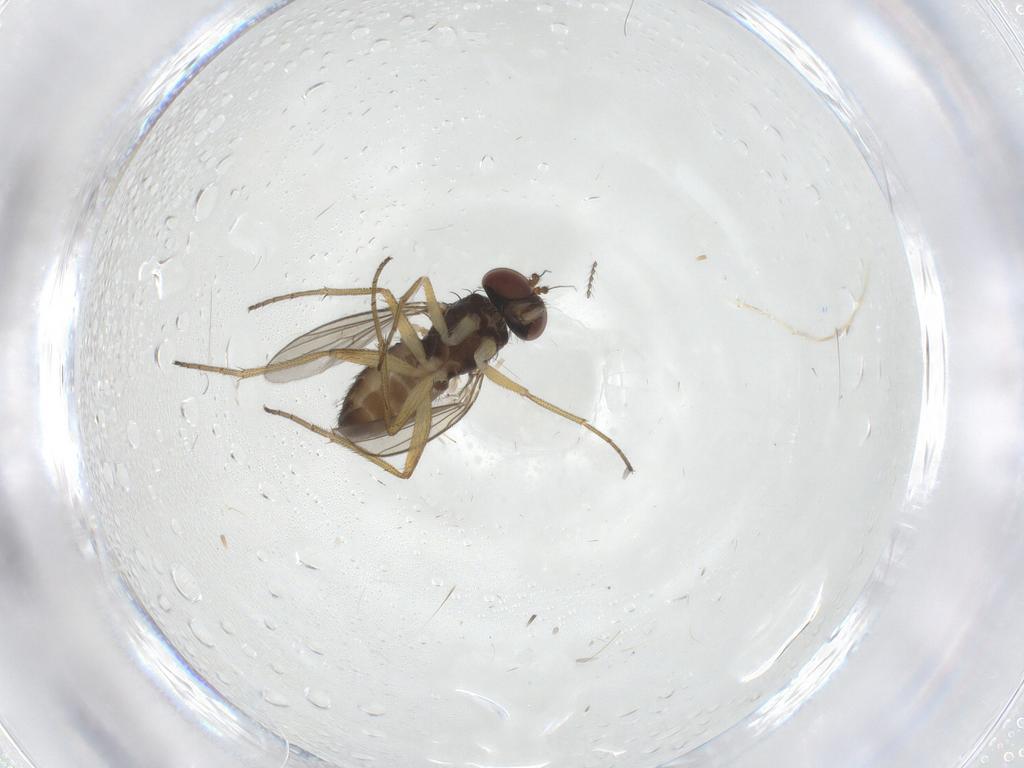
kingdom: Animalia
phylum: Arthropoda
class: Insecta
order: Diptera
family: Dolichopodidae
